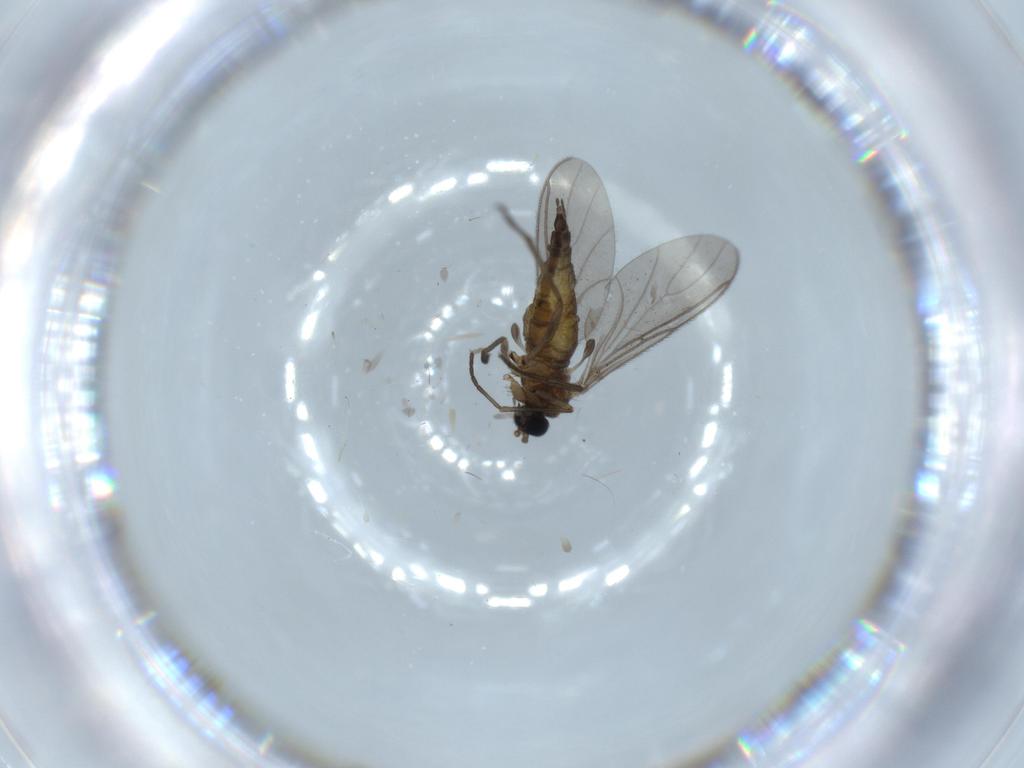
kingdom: Animalia
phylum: Arthropoda
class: Insecta
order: Diptera
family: Sciaridae
